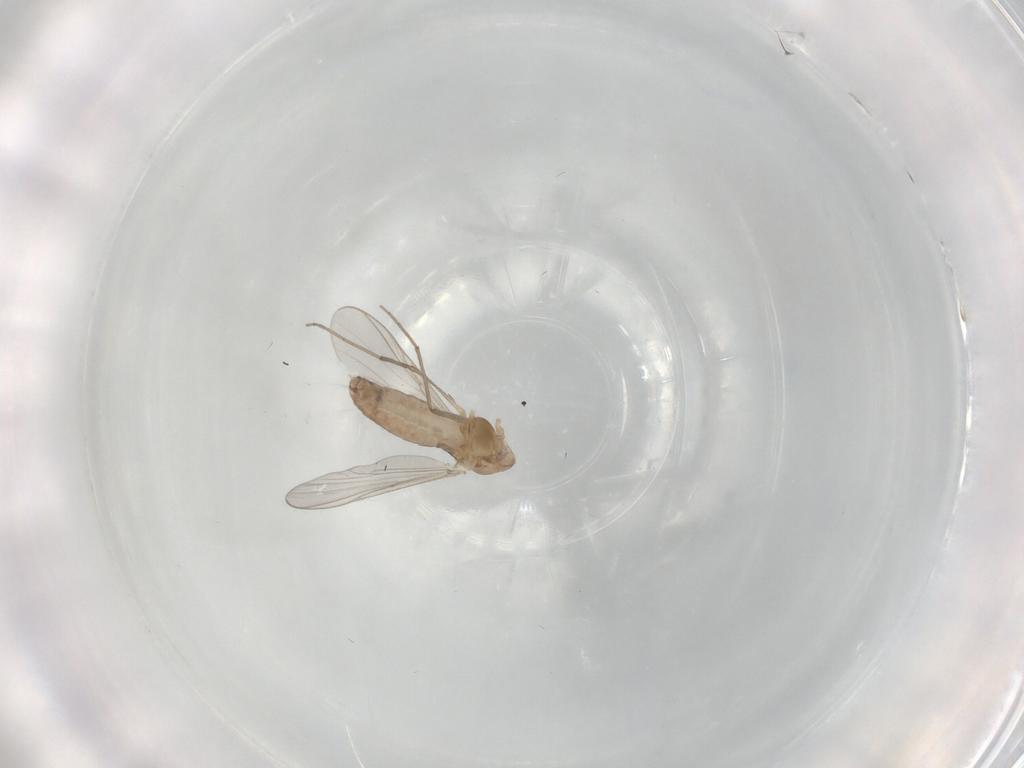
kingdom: Animalia
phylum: Arthropoda
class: Insecta
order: Diptera
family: Chironomidae
